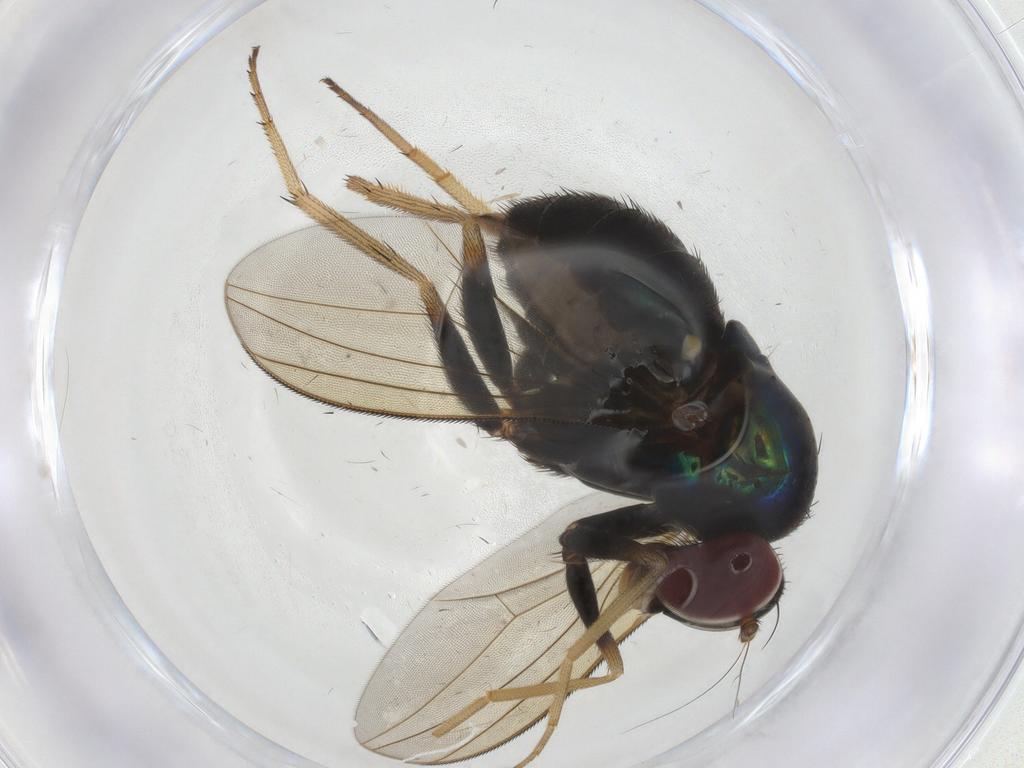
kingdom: Animalia
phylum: Arthropoda
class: Insecta
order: Diptera
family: Dolichopodidae
